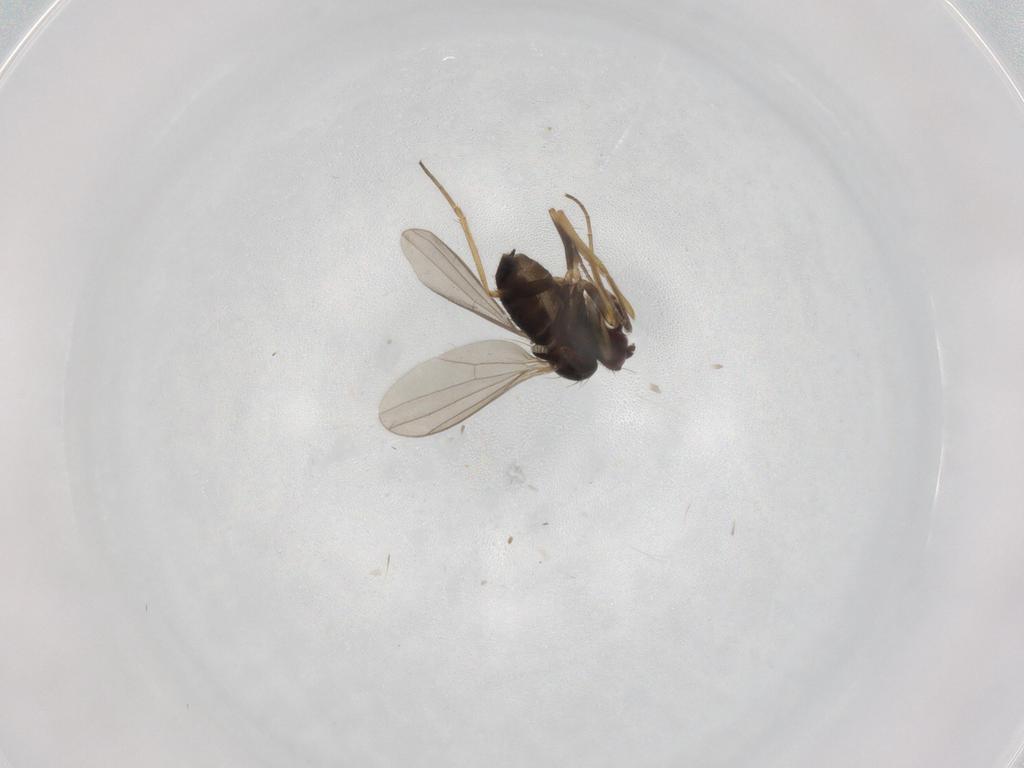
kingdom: Animalia
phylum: Arthropoda
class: Insecta
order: Diptera
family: Dolichopodidae
